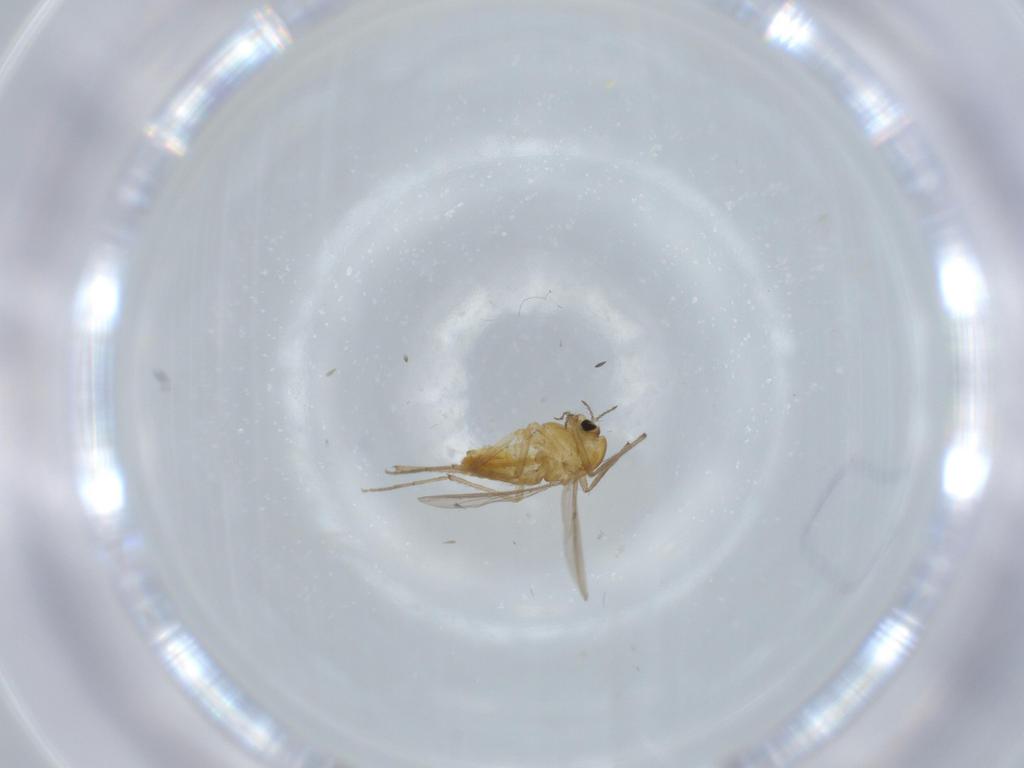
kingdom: Animalia
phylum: Arthropoda
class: Insecta
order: Diptera
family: Chironomidae
